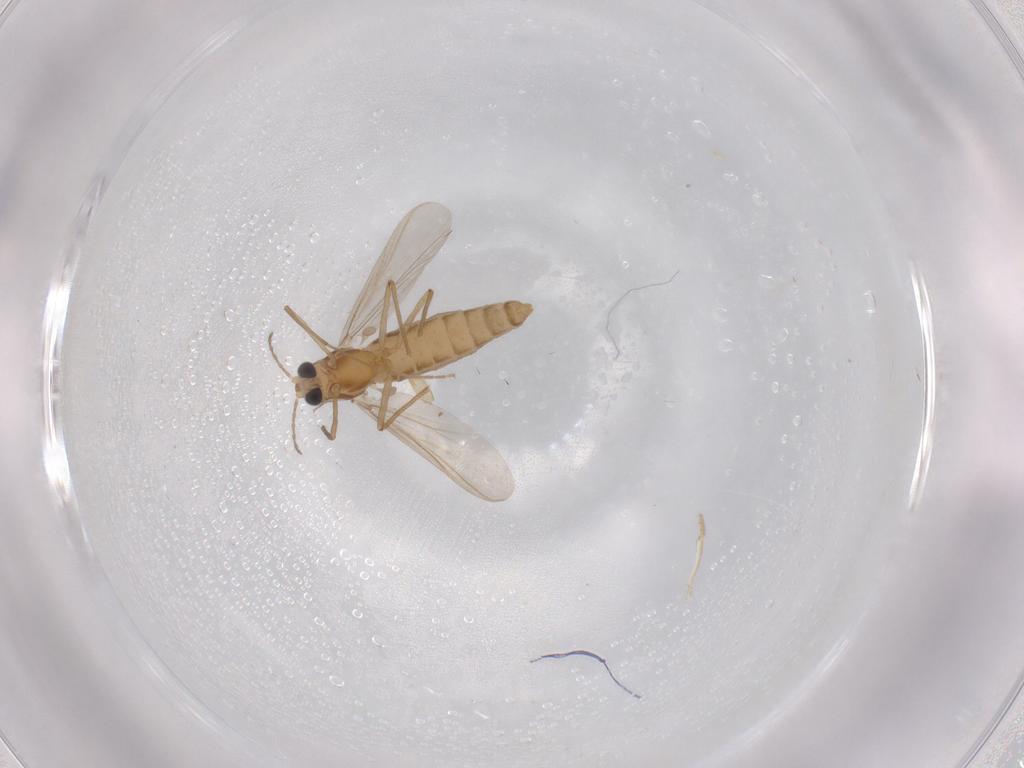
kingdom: Animalia
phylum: Arthropoda
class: Insecta
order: Diptera
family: Chironomidae
